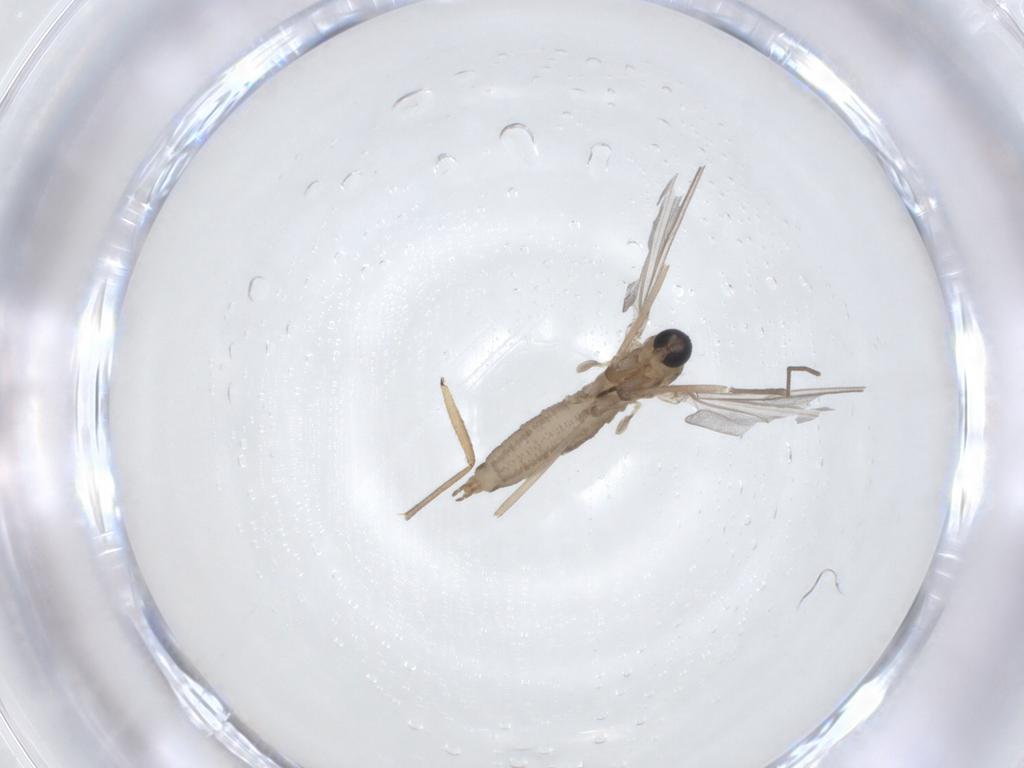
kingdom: Animalia
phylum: Arthropoda
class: Insecta
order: Diptera
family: Cecidomyiidae
